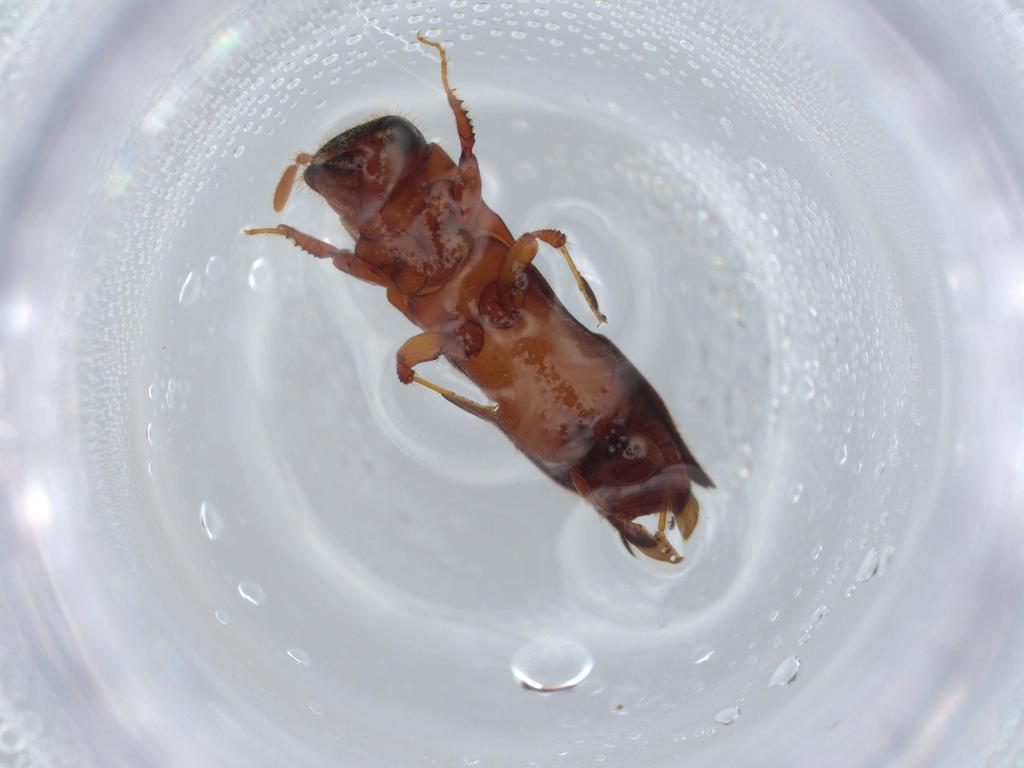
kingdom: Animalia
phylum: Arthropoda
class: Insecta
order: Coleoptera
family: Curculionidae
